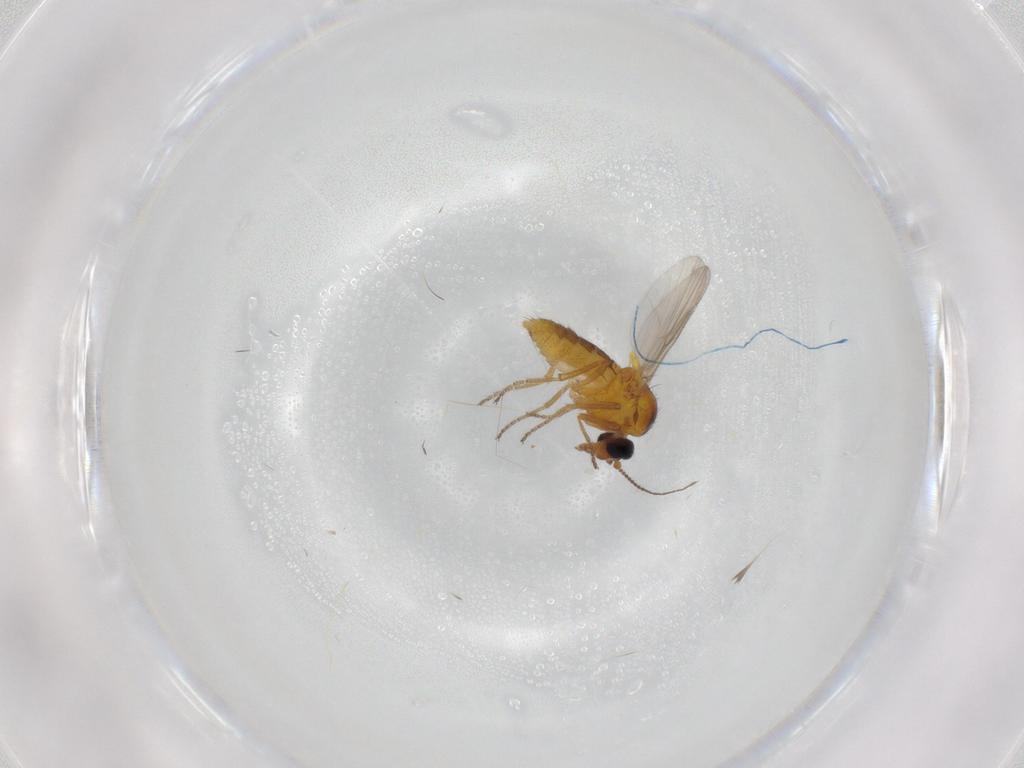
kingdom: Animalia
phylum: Arthropoda
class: Insecta
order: Diptera
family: Ceratopogonidae
